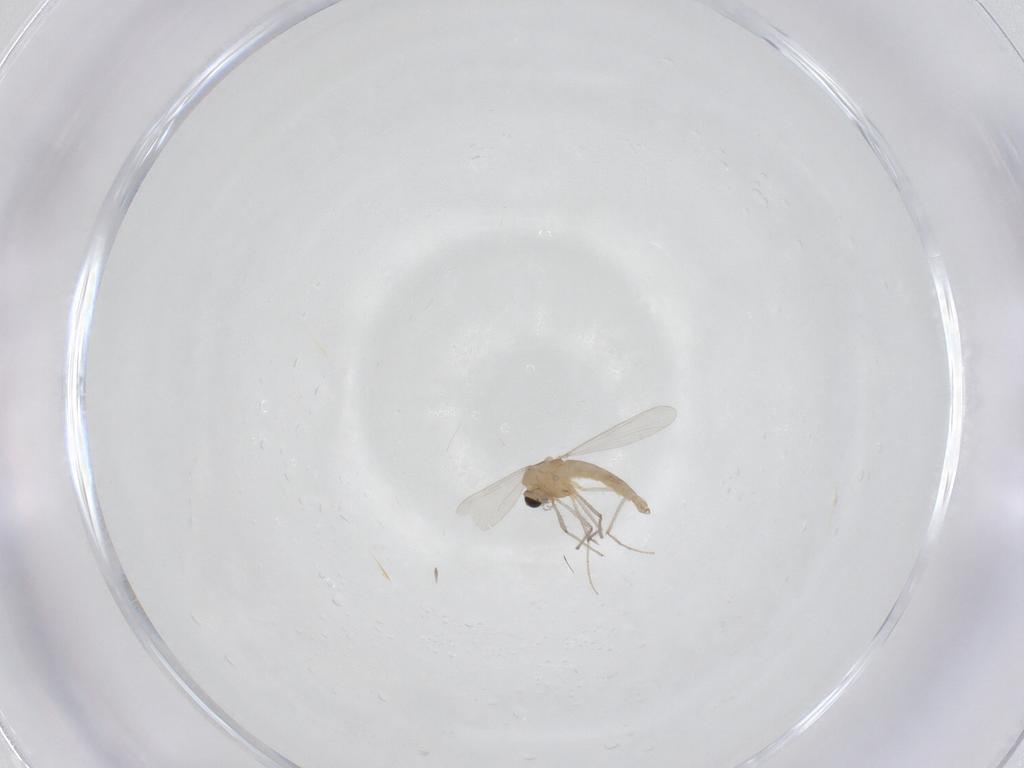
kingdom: Animalia
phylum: Arthropoda
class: Insecta
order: Diptera
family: Chironomidae
